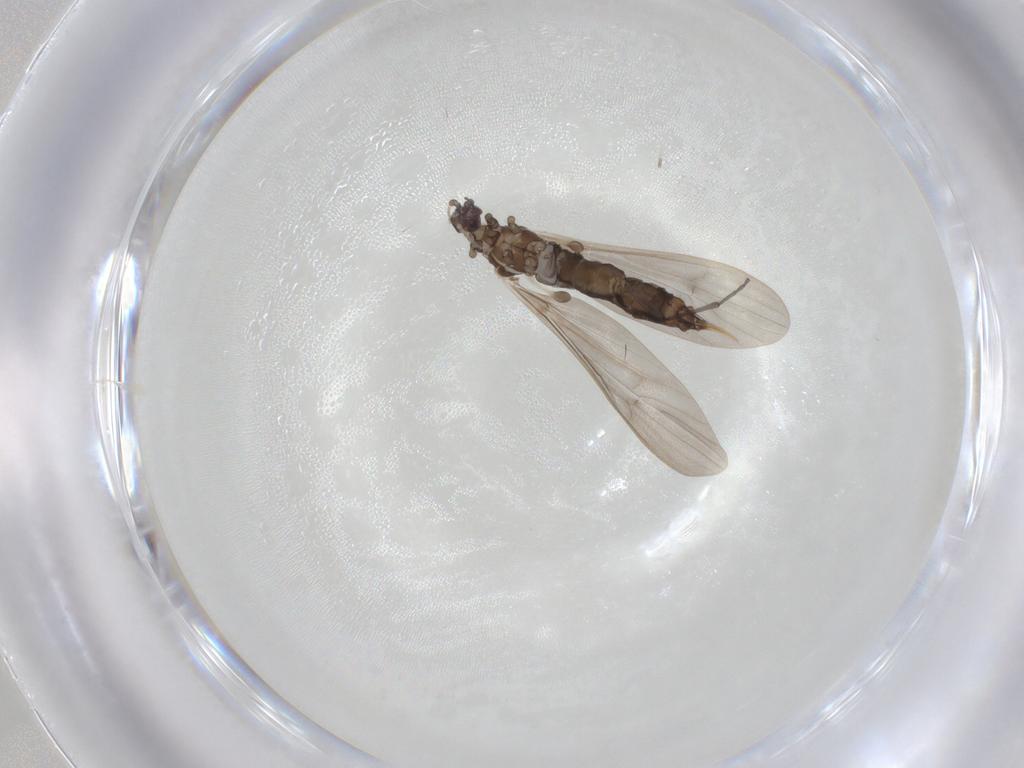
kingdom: Animalia
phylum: Arthropoda
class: Insecta
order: Diptera
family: Limoniidae
